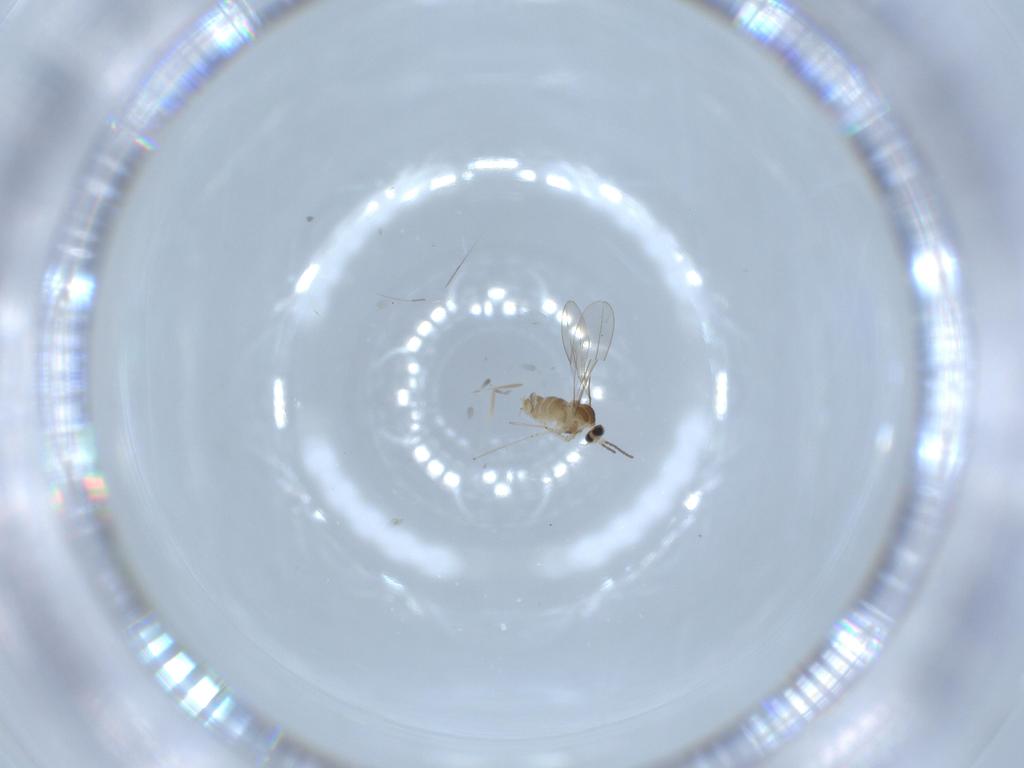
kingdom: Animalia
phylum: Arthropoda
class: Insecta
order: Diptera
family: Cecidomyiidae
